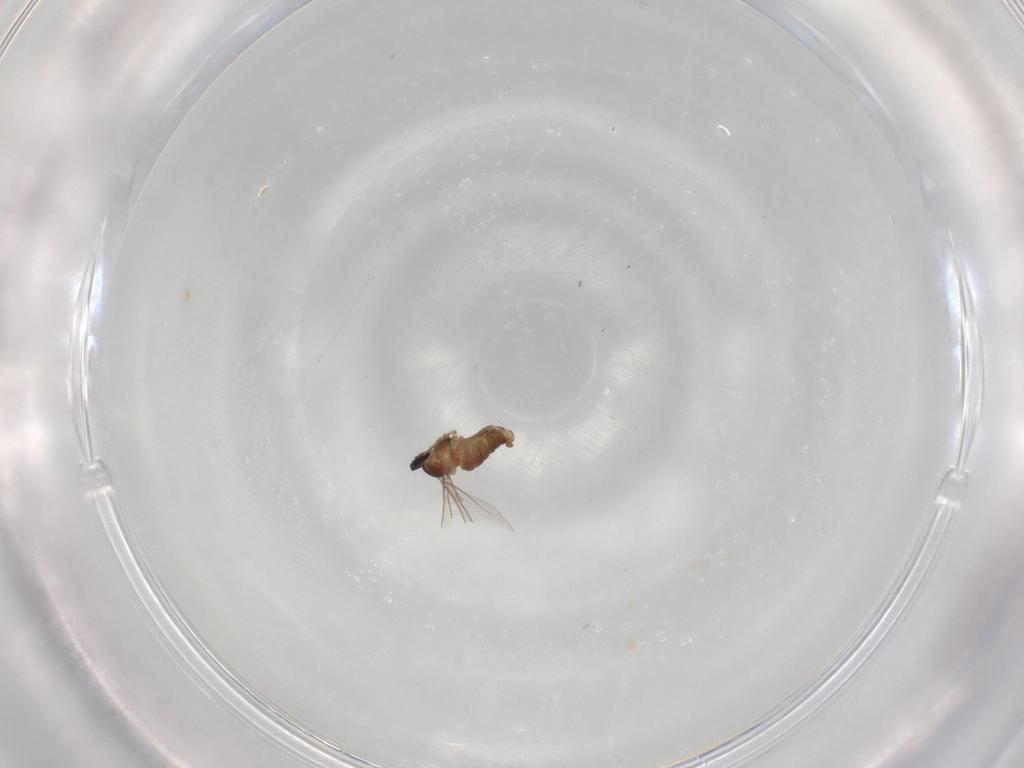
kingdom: Animalia
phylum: Arthropoda
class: Insecta
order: Diptera
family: Cecidomyiidae
